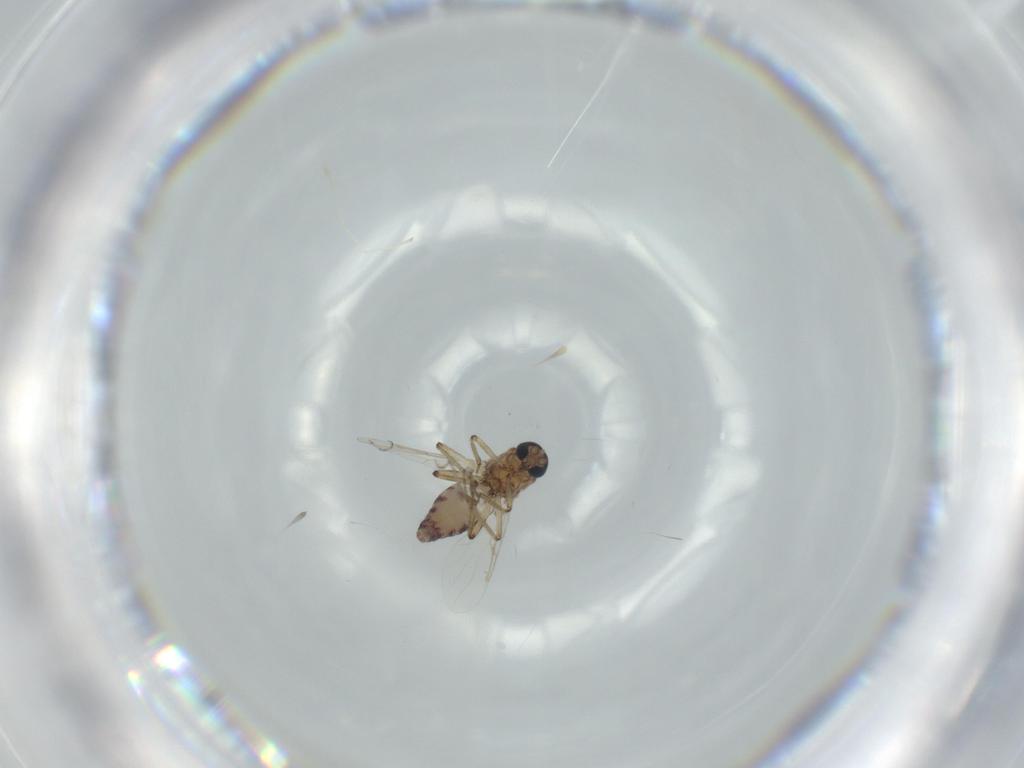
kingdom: Animalia
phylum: Arthropoda
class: Insecta
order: Diptera
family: Ceratopogonidae
